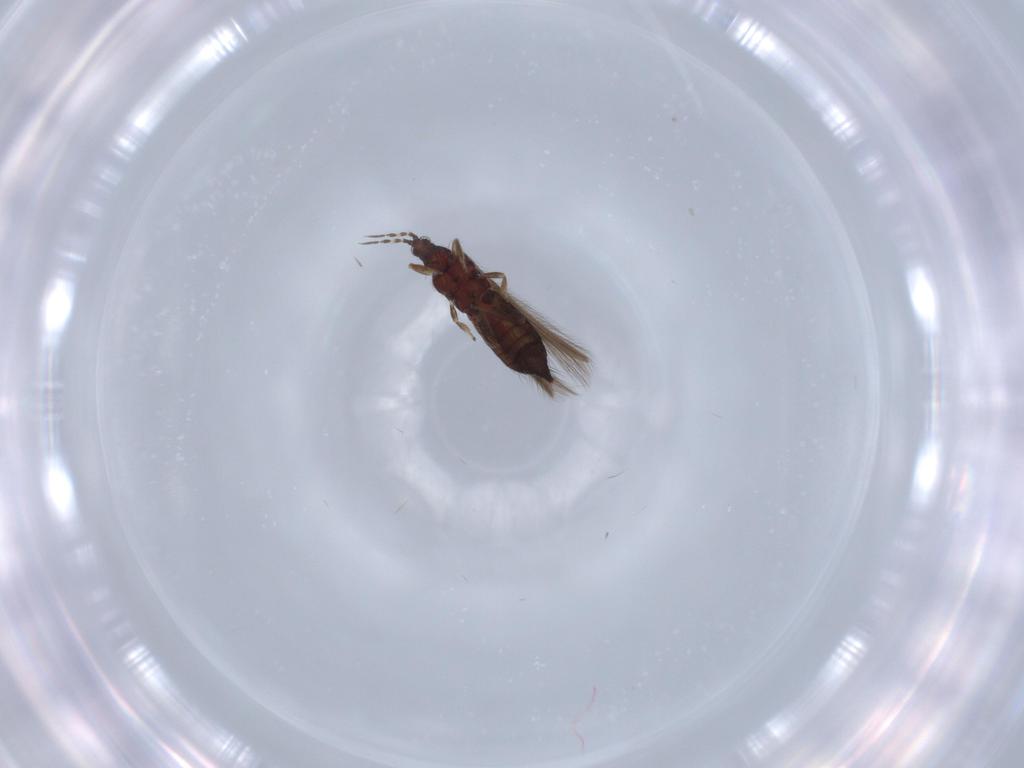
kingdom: Animalia
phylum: Arthropoda
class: Insecta
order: Thysanoptera
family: Thripidae
